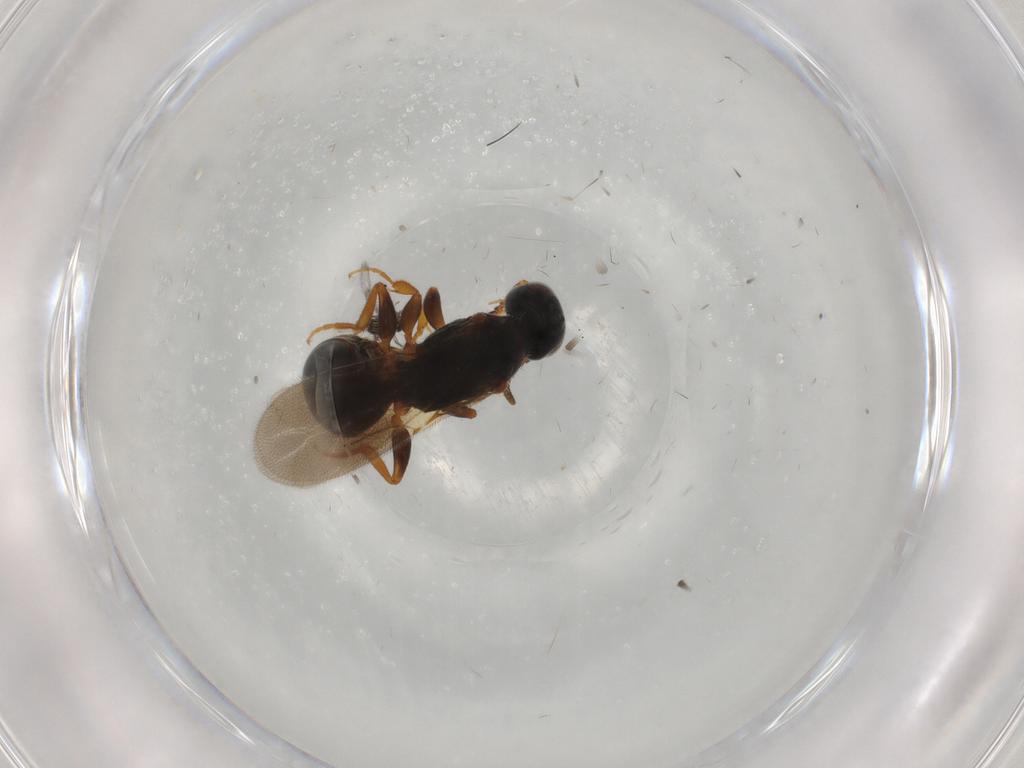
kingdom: Animalia
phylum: Arthropoda
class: Insecta
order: Hymenoptera
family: Bethylidae
